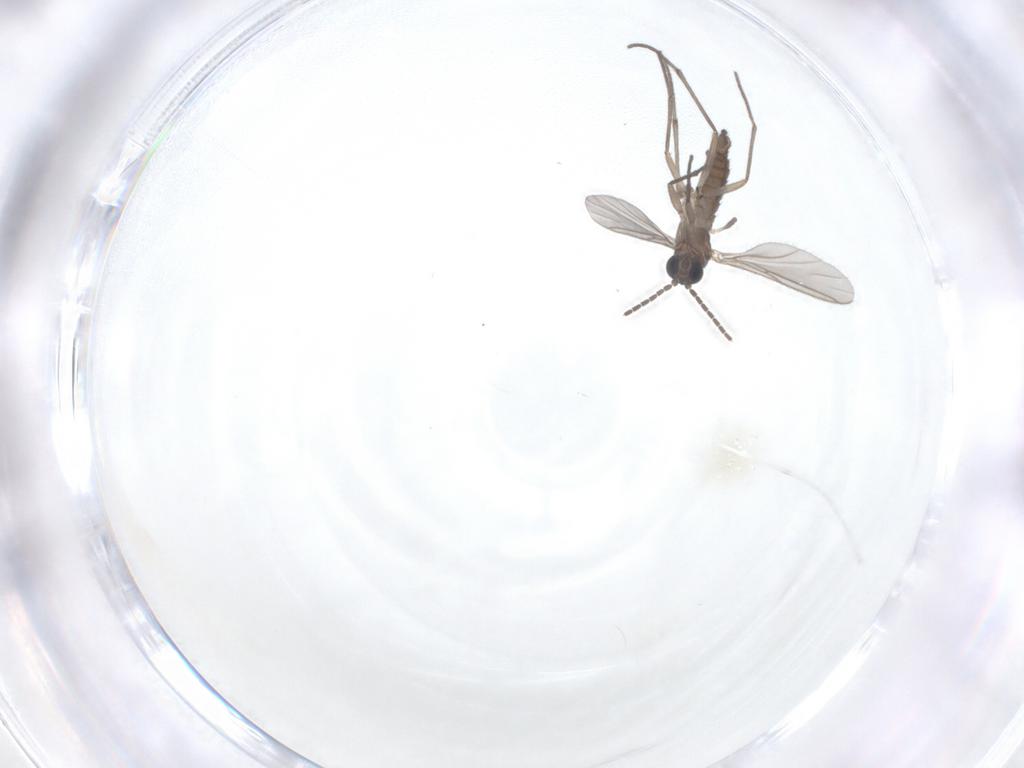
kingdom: Animalia
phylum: Arthropoda
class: Insecta
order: Diptera
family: Sciaridae
